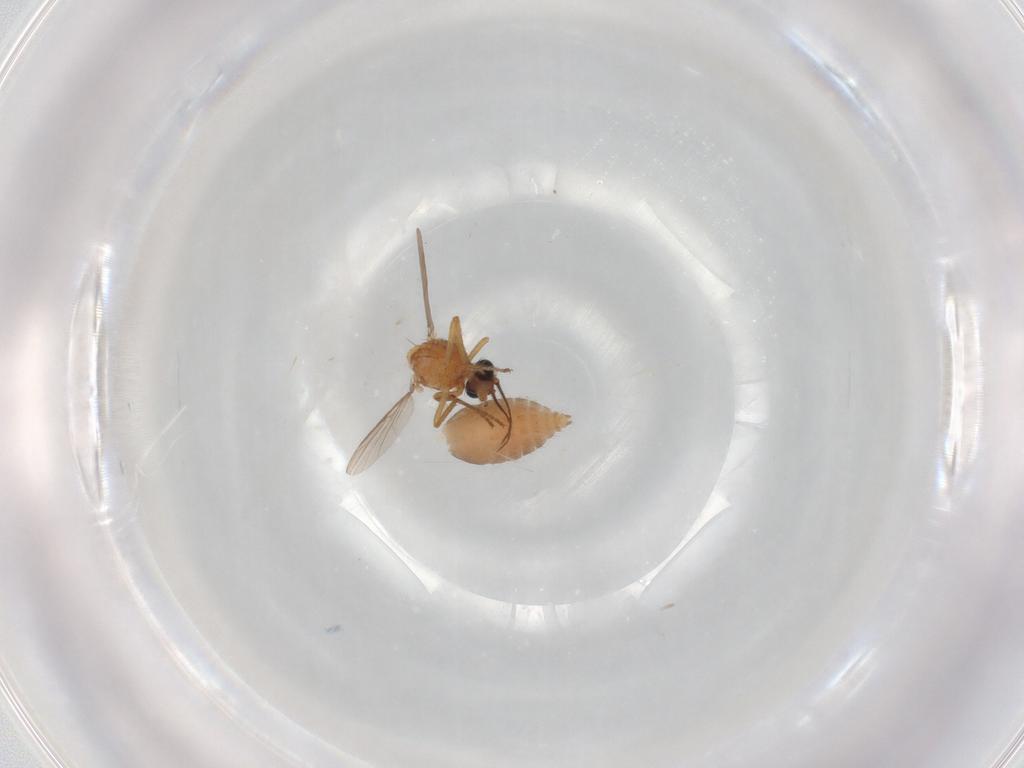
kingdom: Animalia
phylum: Arthropoda
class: Insecta
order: Diptera
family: Ceratopogonidae
